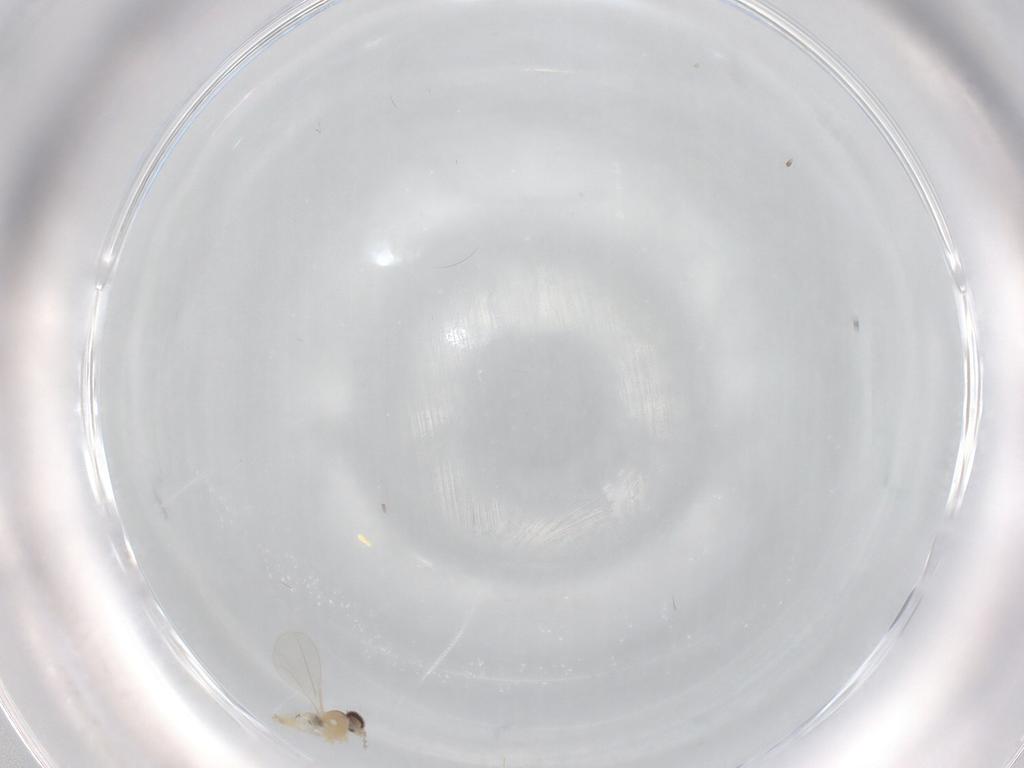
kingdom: Animalia
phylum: Arthropoda
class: Insecta
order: Diptera
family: Cecidomyiidae
